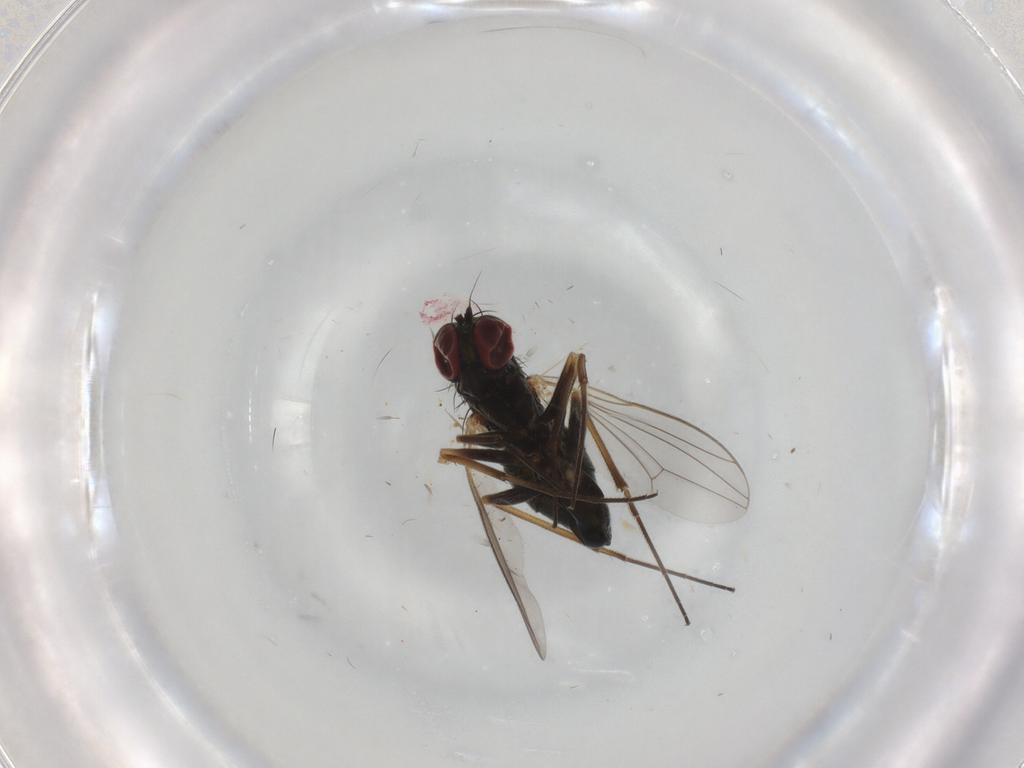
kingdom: Animalia
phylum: Arthropoda
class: Insecta
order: Diptera
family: Dolichopodidae
